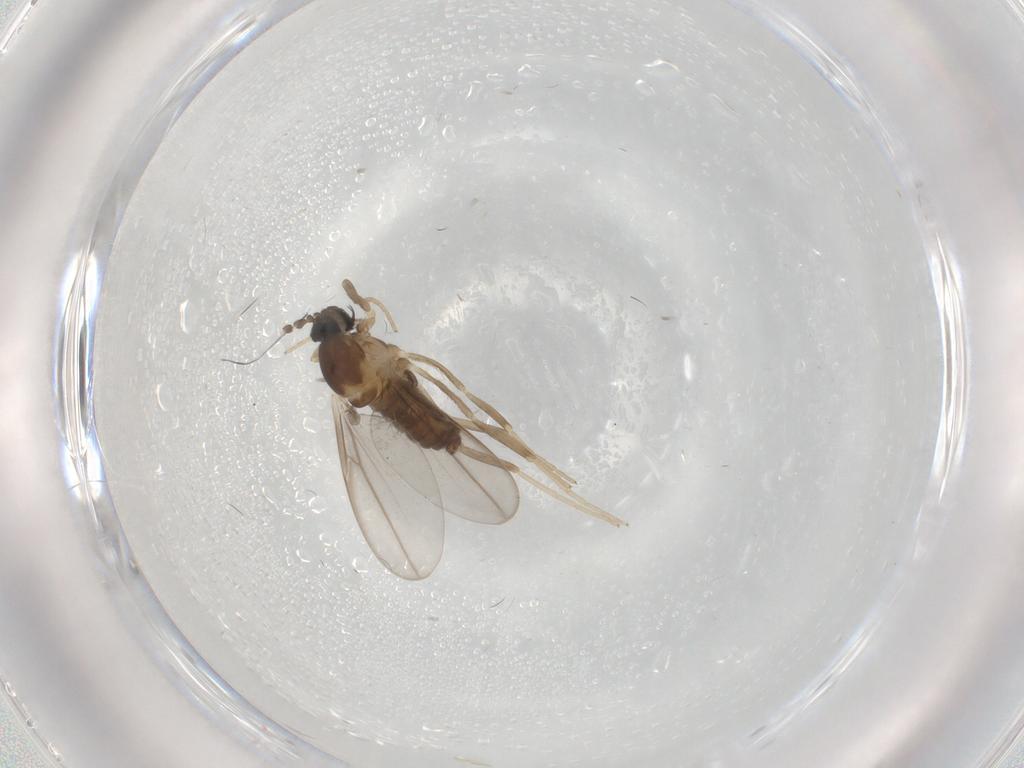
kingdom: Animalia
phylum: Arthropoda
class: Insecta
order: Diptera
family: Cecidomyiidae
